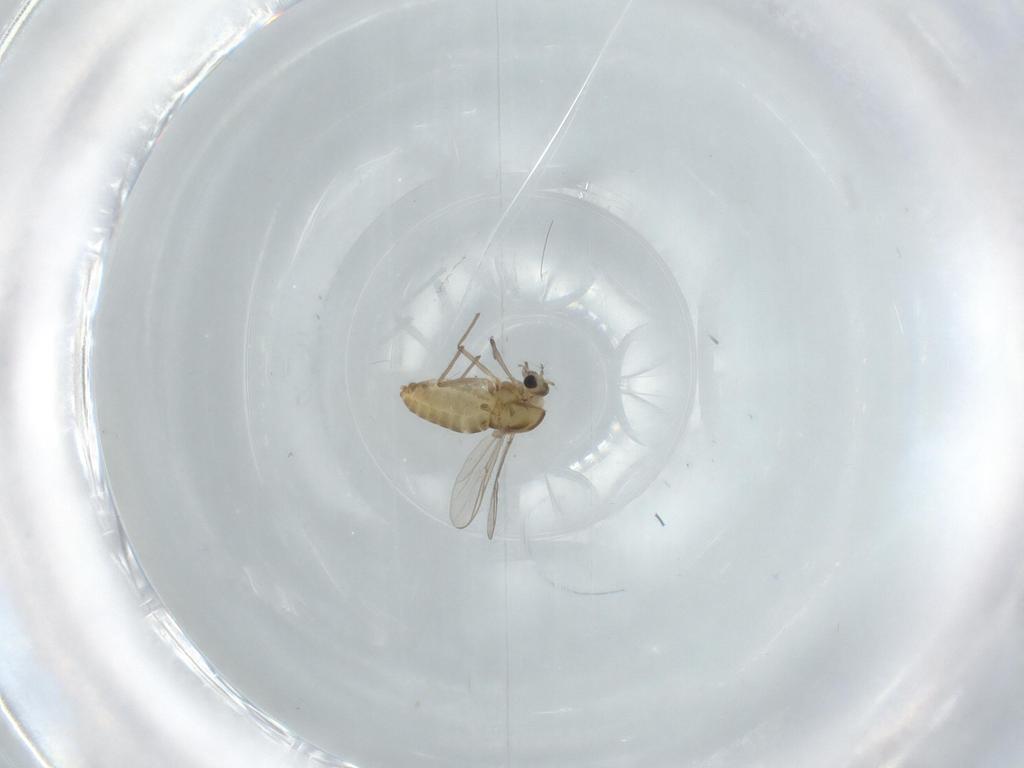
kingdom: Animalia
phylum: Arthropoda
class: Insecta
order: Diptera
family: Chironomidae
